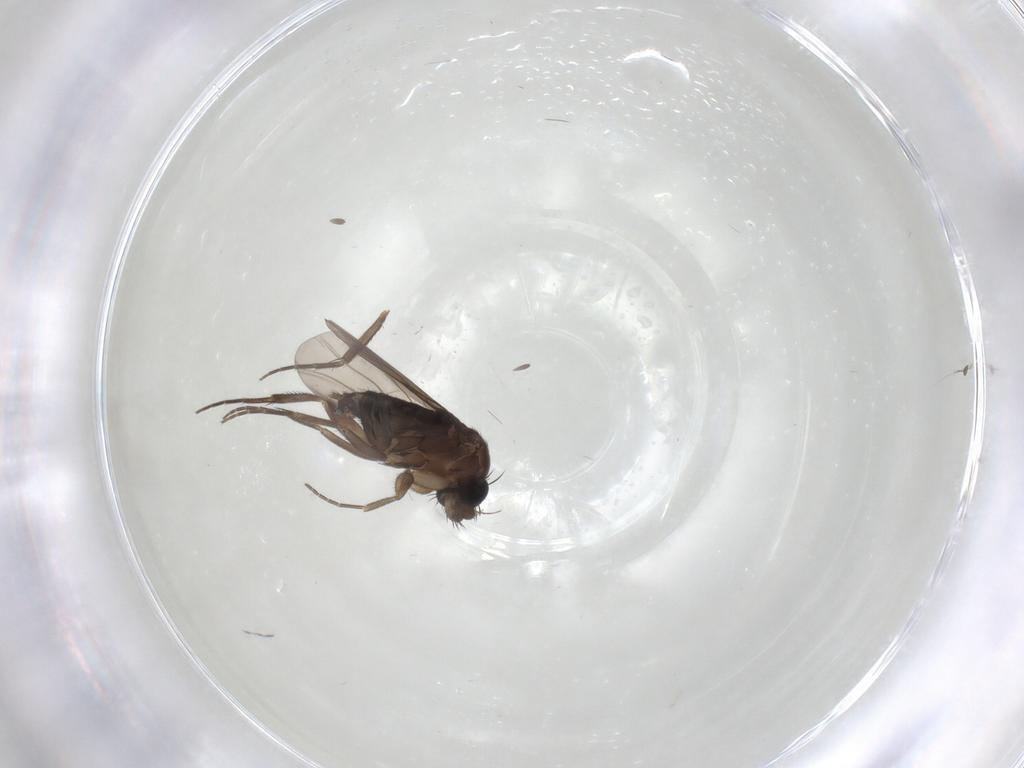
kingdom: Animalia
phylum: Arthropoda
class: Insecta
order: Diptera
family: Phoridae
